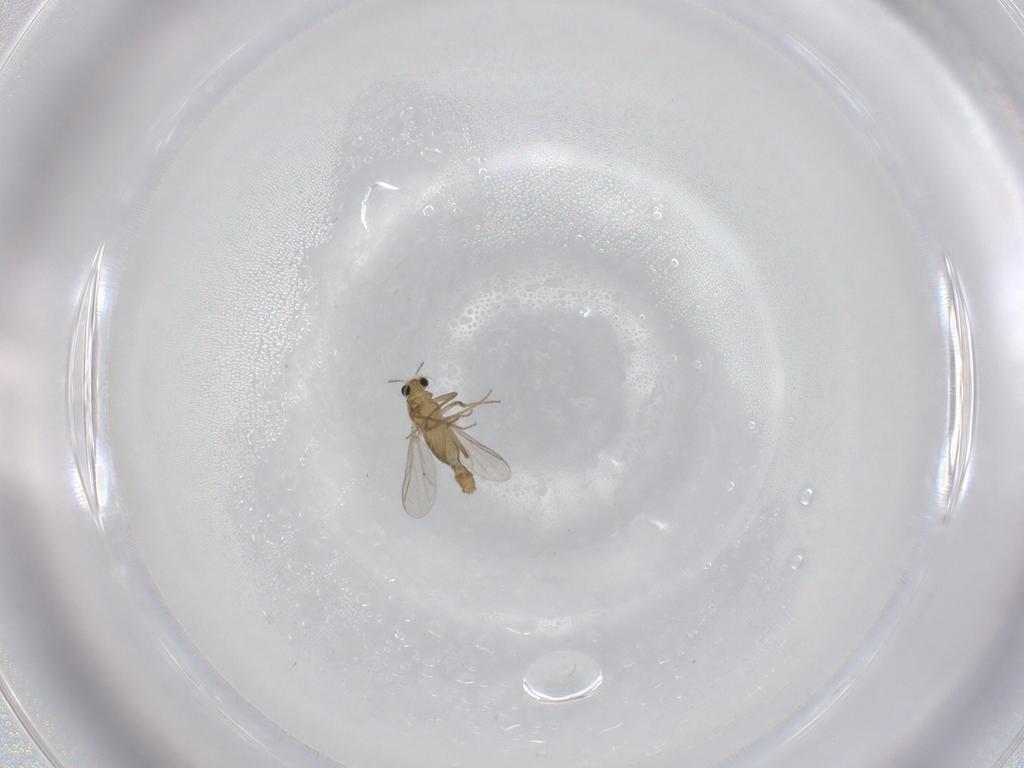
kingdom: Animalia
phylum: Arthropoda
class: Insecta
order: Diptera
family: Chironomidae
